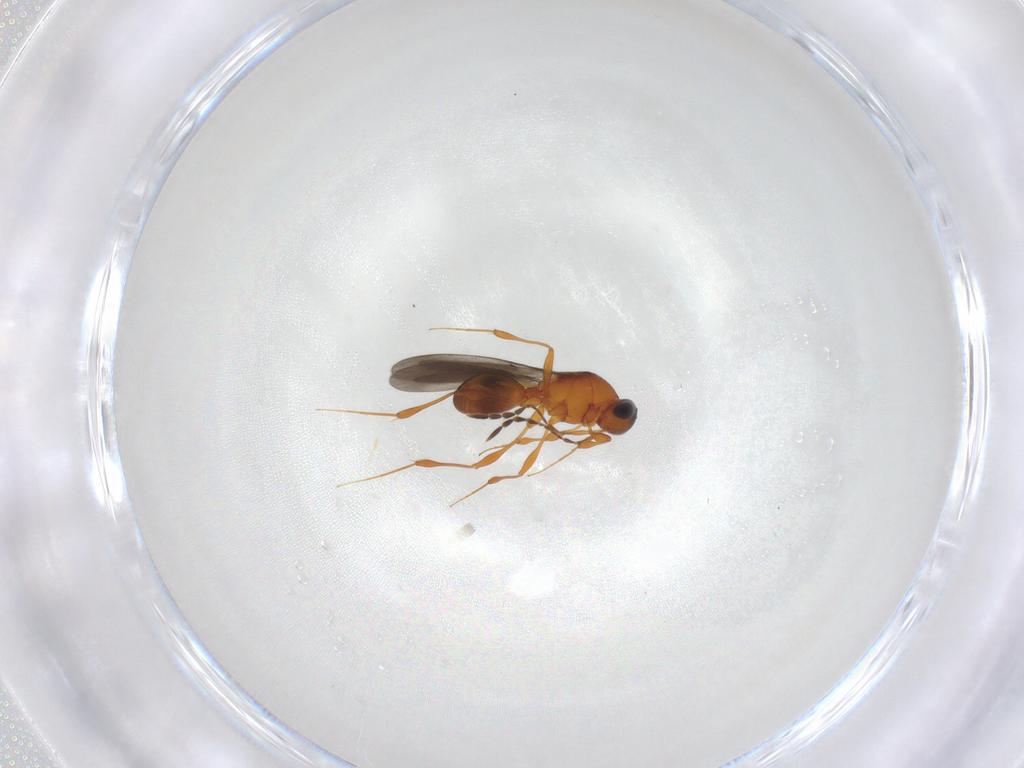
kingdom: Animalia
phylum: Arthropoda
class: Insecta
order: Hymenoptera
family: Platygastridae
